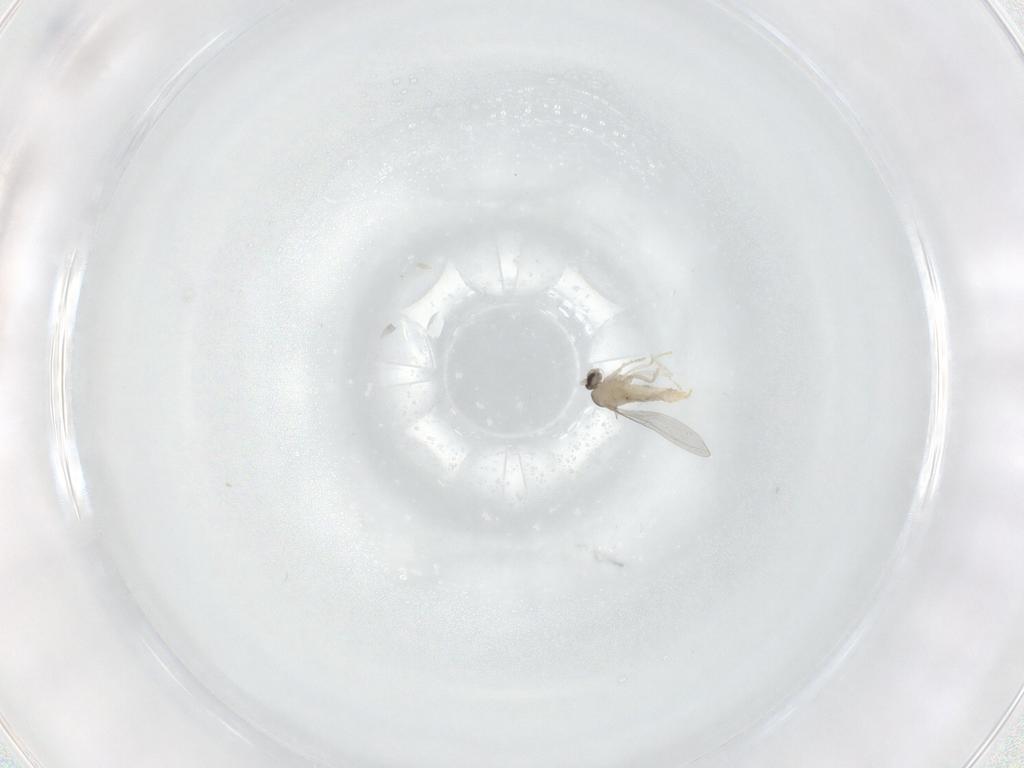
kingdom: Animalia
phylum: Arthropoda
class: Insecta
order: Diptera
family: Cecidomyiidae
